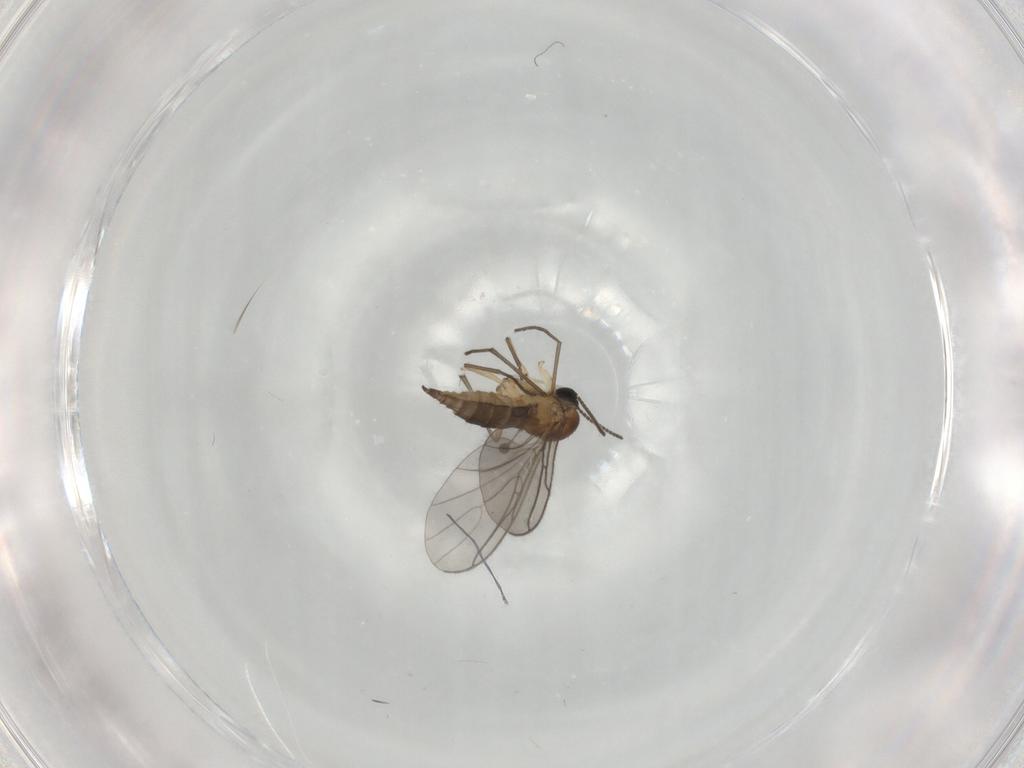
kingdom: Animalia
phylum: Arthropoda
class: Insecta
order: Diptera
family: Sciaridae
